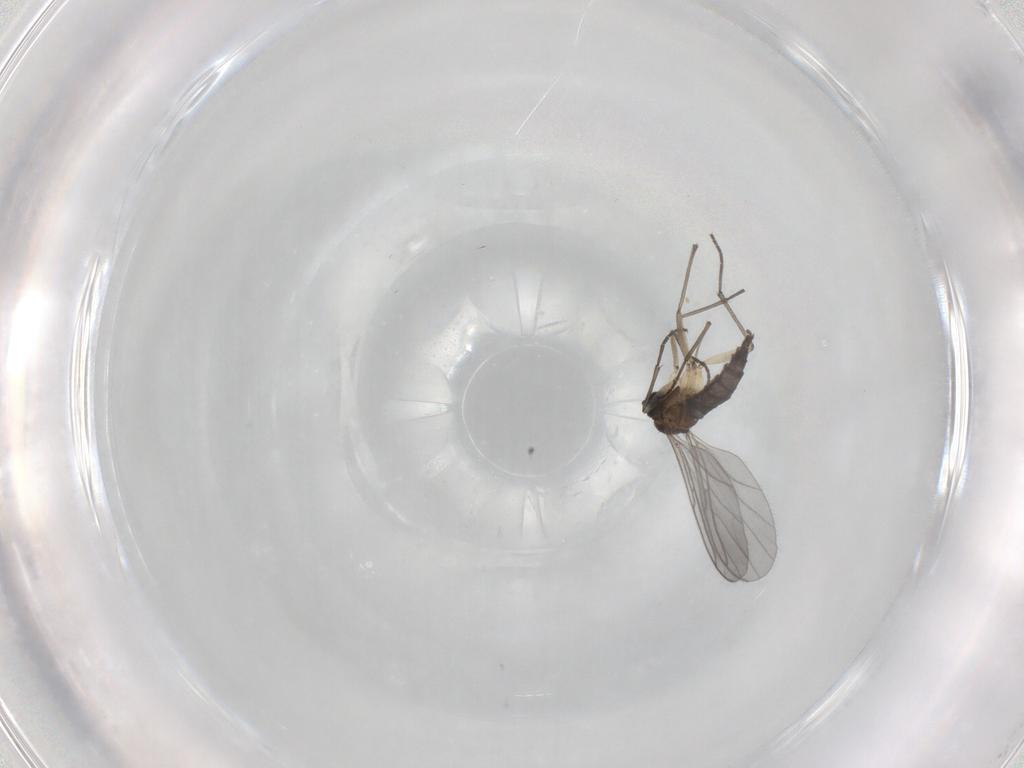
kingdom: Animalia
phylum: Arthropoda
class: Insecta
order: Diptera
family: Sciaridae
